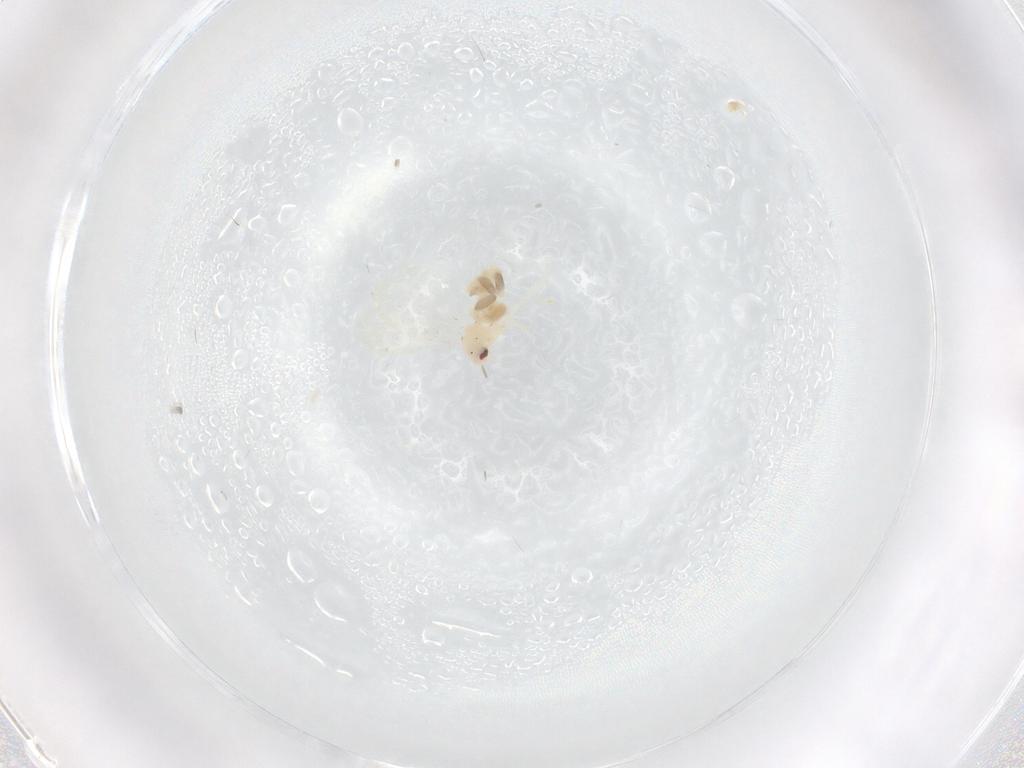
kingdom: Animalia
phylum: Arthropoda
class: Insecta
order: Hemiptera
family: Aleyrodidae
